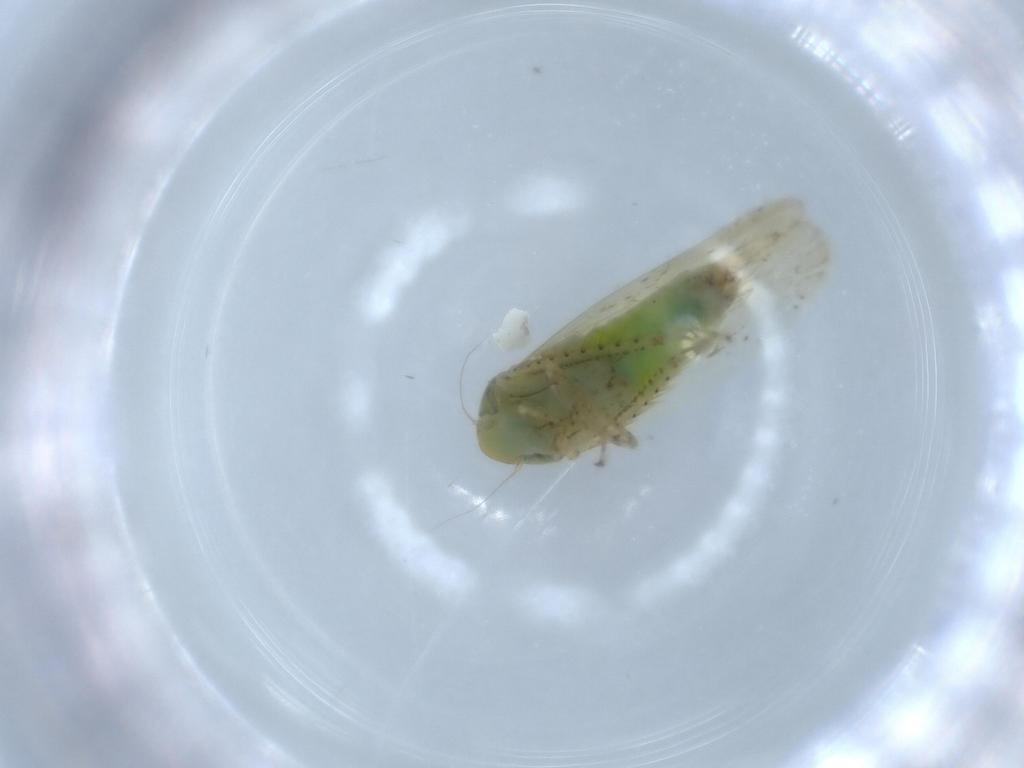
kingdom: Animalia
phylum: Arthropoda
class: Insecta
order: Hemiptera
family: Cicadellidae
